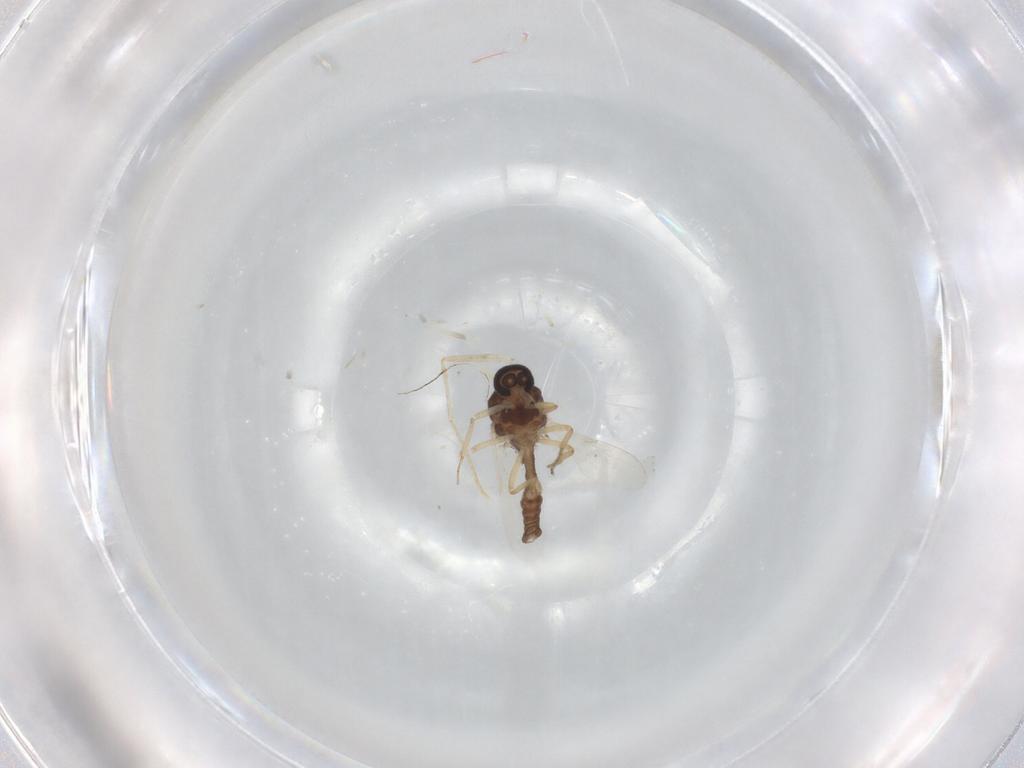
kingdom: Animalia
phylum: Arthropoda
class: Insecta
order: Diptera
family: Ceratopogonidae
